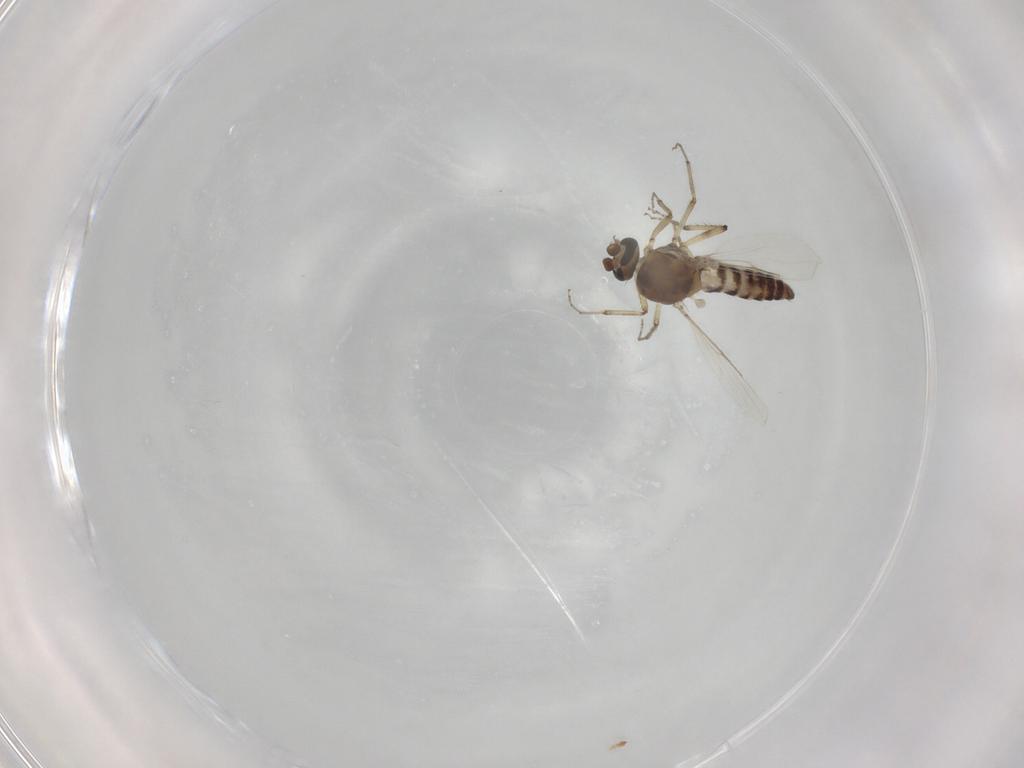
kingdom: Animalia
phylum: Arthropoda
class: Insecta
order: Diptera
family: Ceratopogonidae
